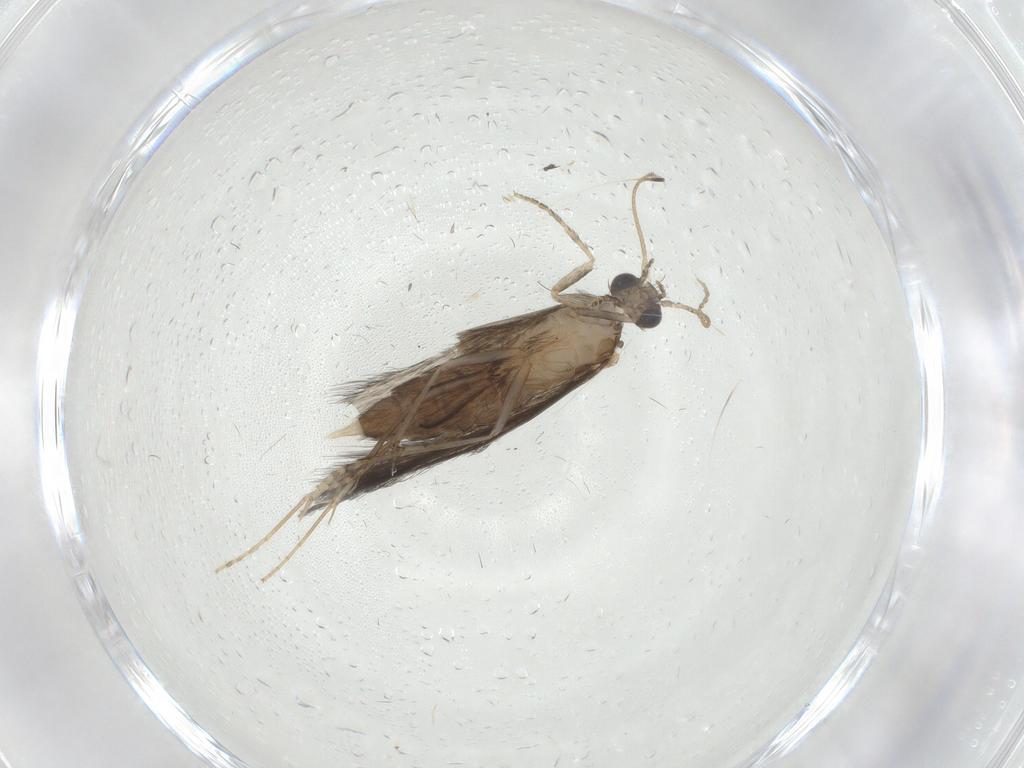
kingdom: Animalia
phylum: Arthropoda
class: Insecta
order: Trichoptera
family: Hydroptilidae
